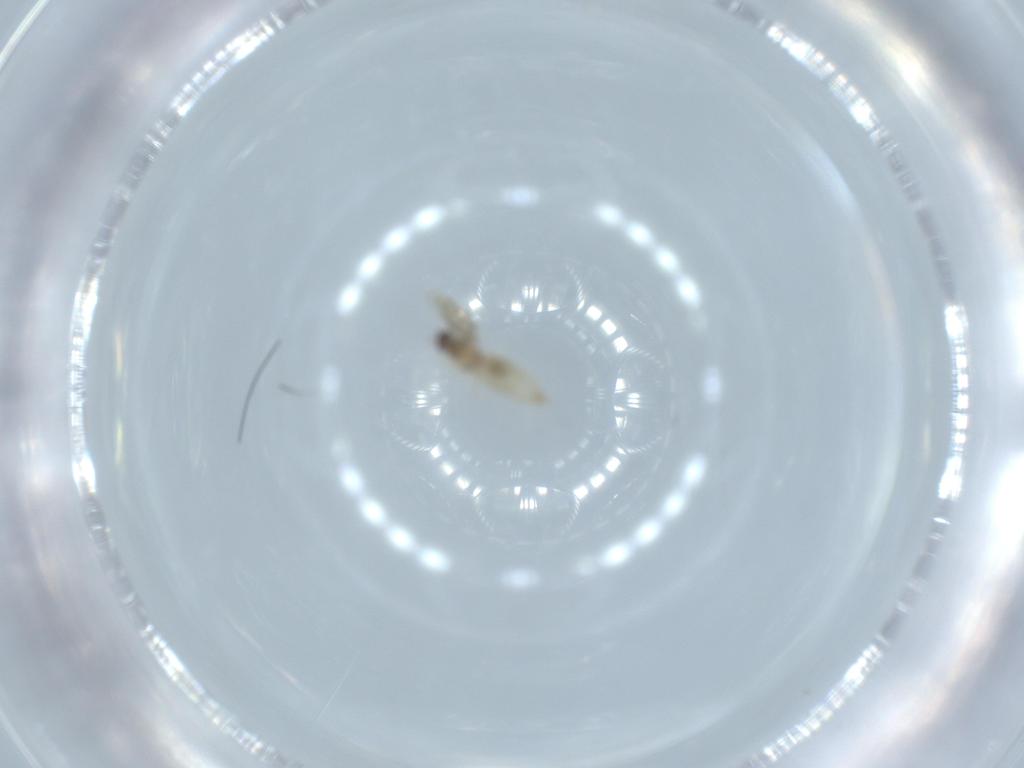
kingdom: Animalia
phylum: Arthropoda
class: Insecta
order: Diptera
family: Cecidomyiidae
